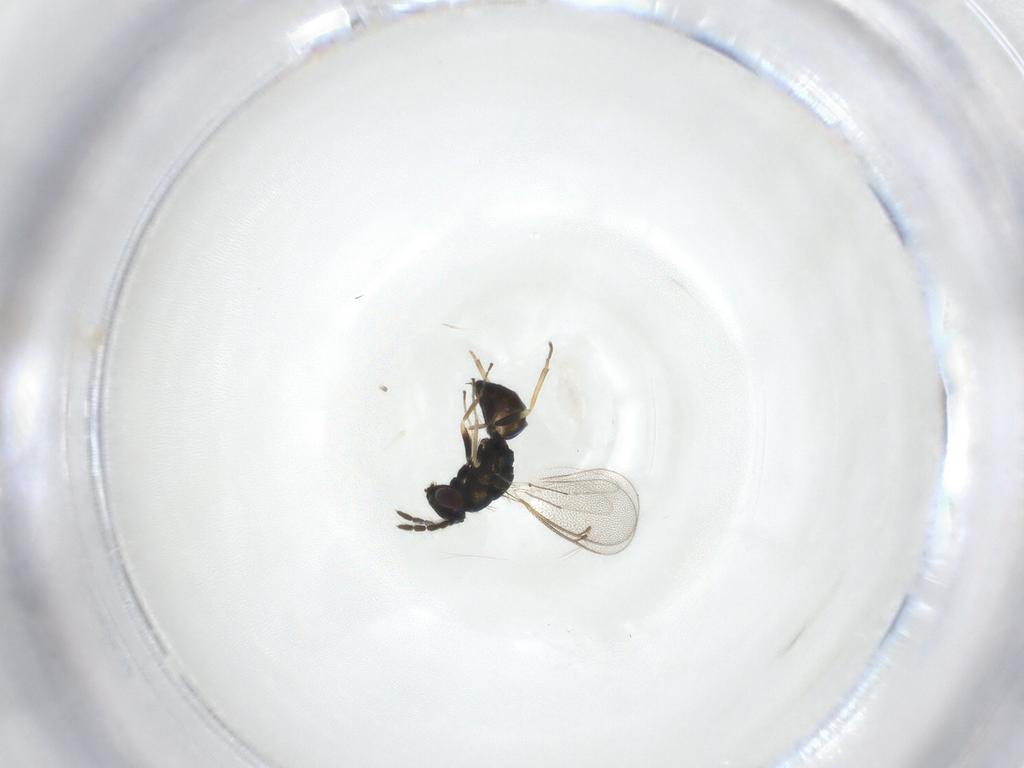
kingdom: Animalia
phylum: Arthropoda
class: Insecta
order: Hymenoptera
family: Eulophidae
